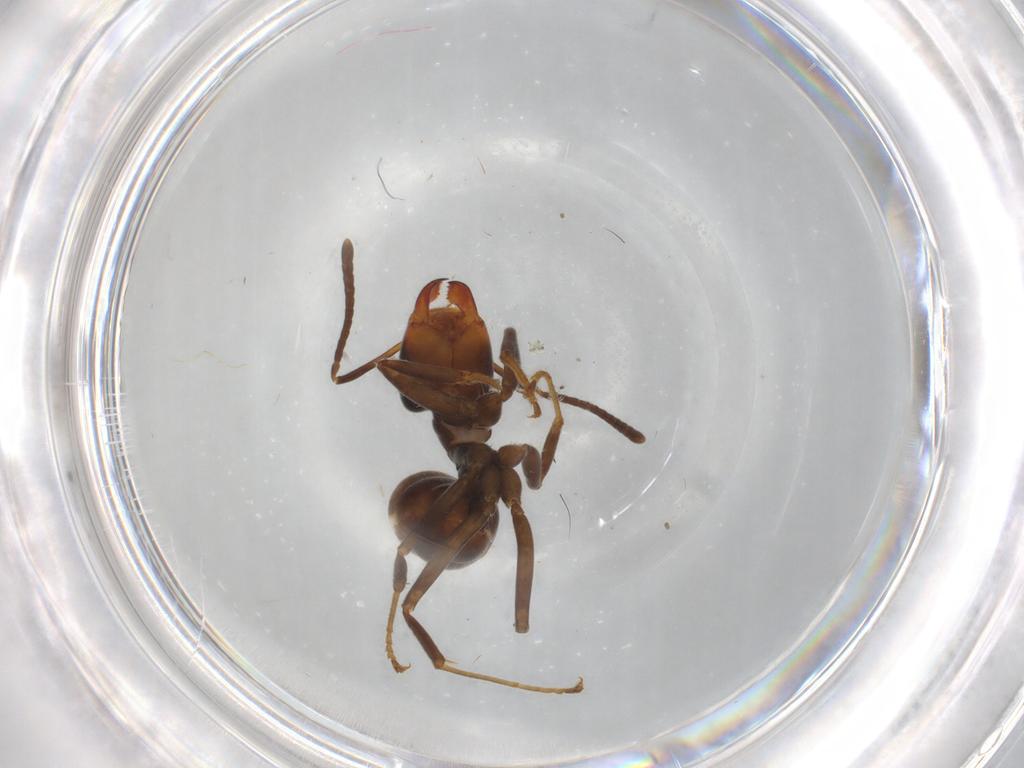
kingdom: Animalia
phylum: Arthropoda
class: Insecta
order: Hymenoptera
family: Formicidae
